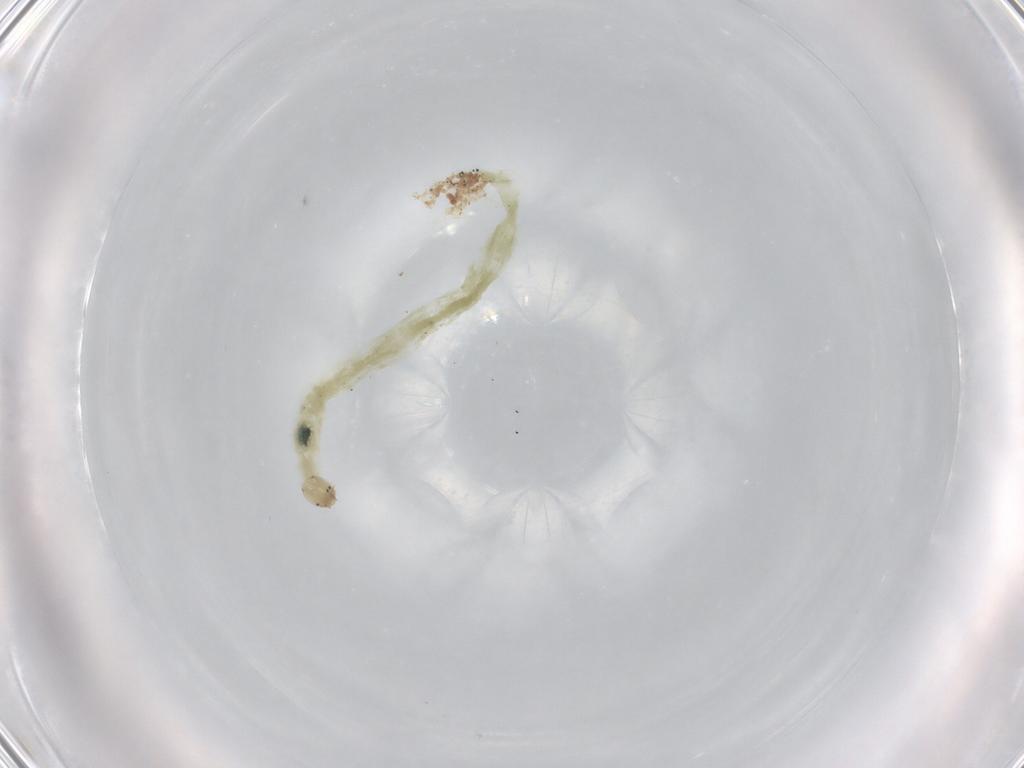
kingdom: Animalia
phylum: Arthropoda
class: Insecta
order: Diptera
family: Chironomidae
